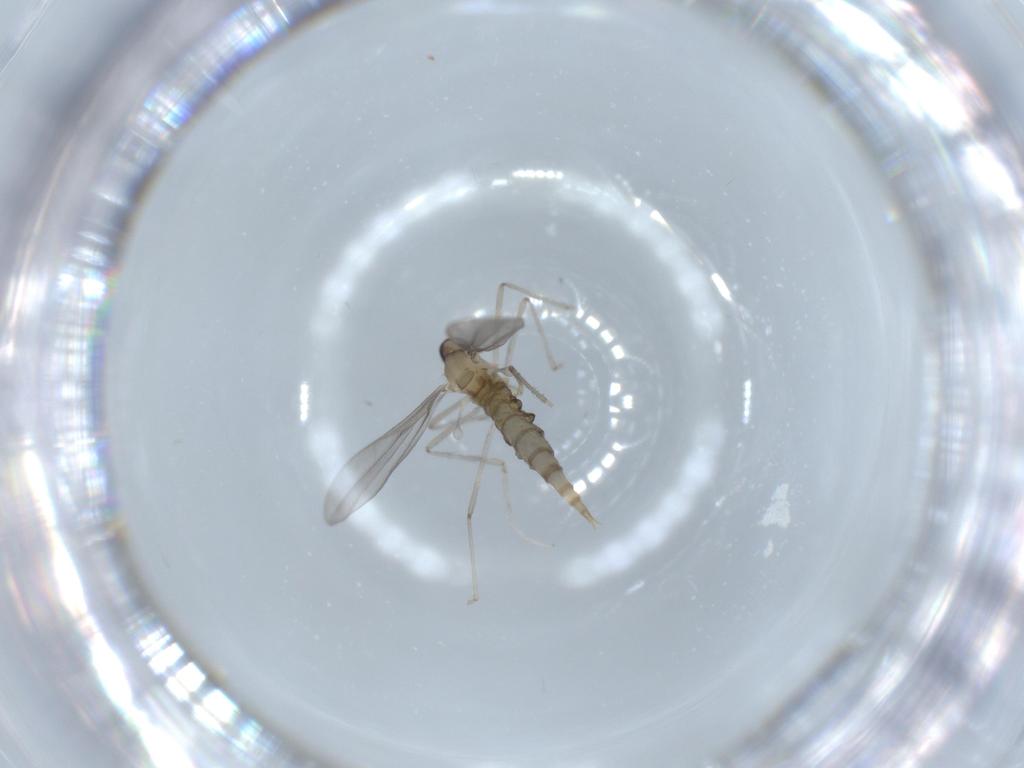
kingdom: Animalia
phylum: Arthropoda
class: Insecta
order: Diptera
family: Cecidomyiidae
